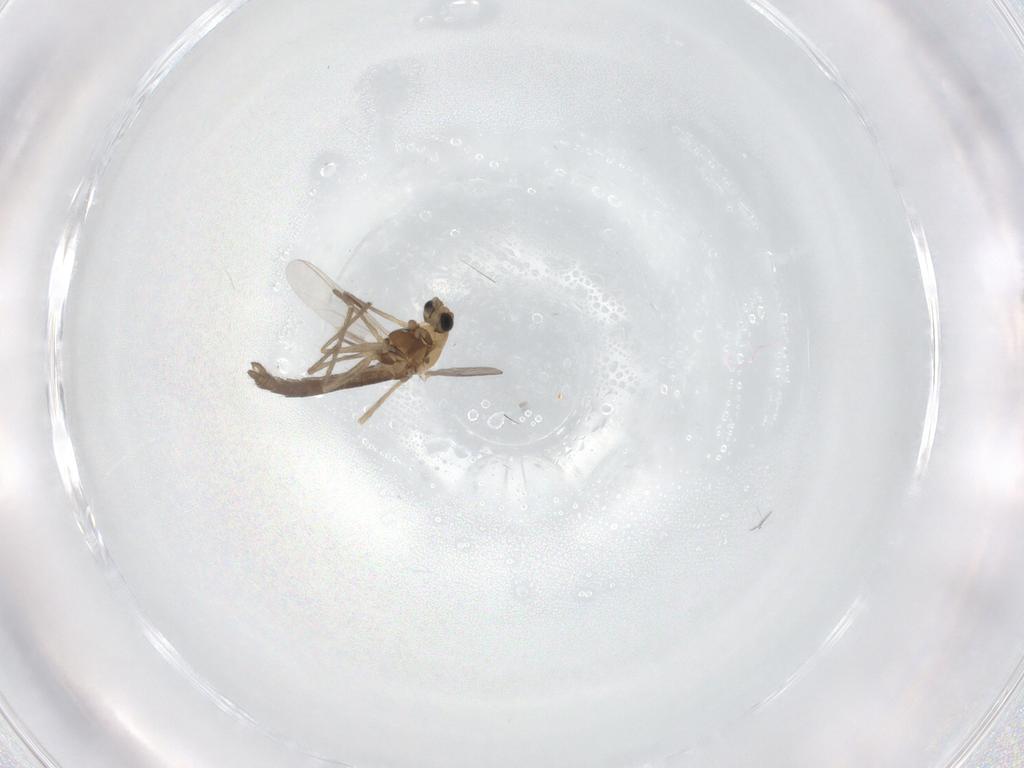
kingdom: Animalia
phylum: Arthropoda
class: Insecta
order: Diptera
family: Chironomidae
